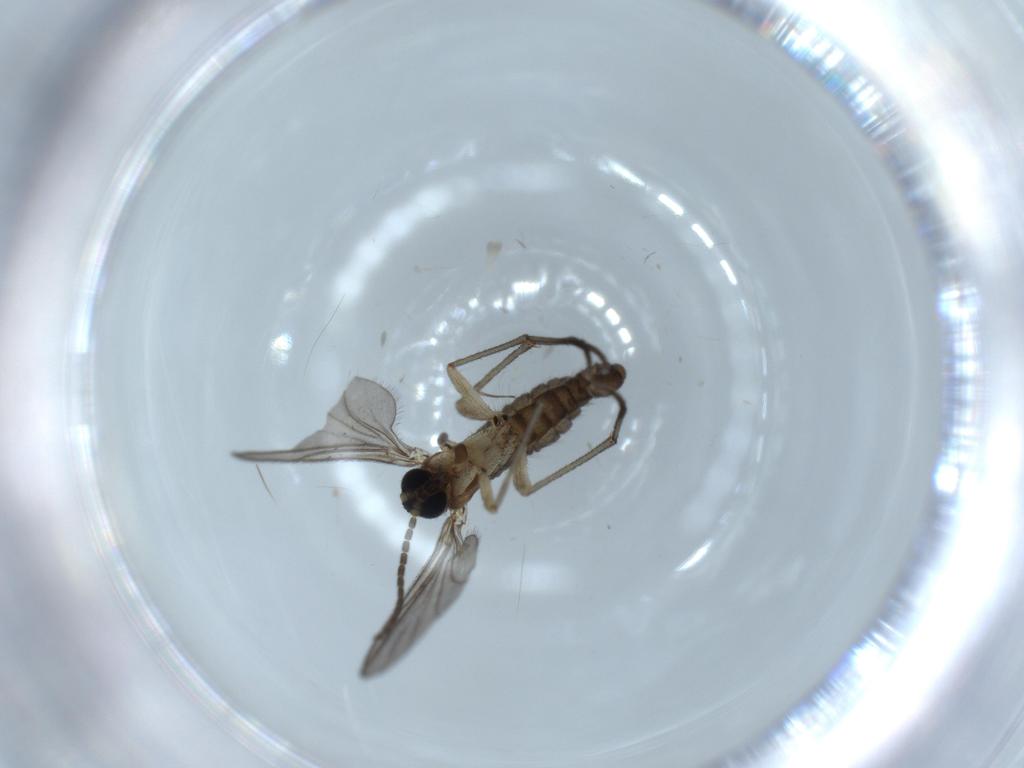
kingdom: Animalia
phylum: Arthropoda
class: Insecta
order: Diptera
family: Sciaridae
